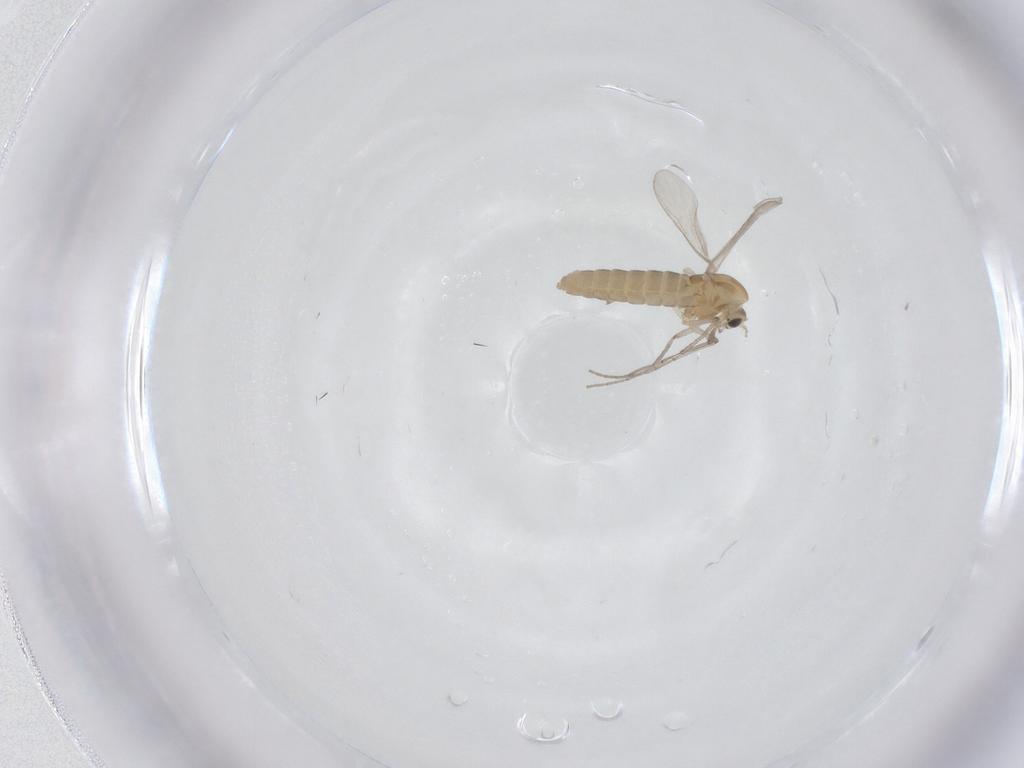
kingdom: Animalia
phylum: Arthropoda
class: Insecta
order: Diptera
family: Chironomidae
